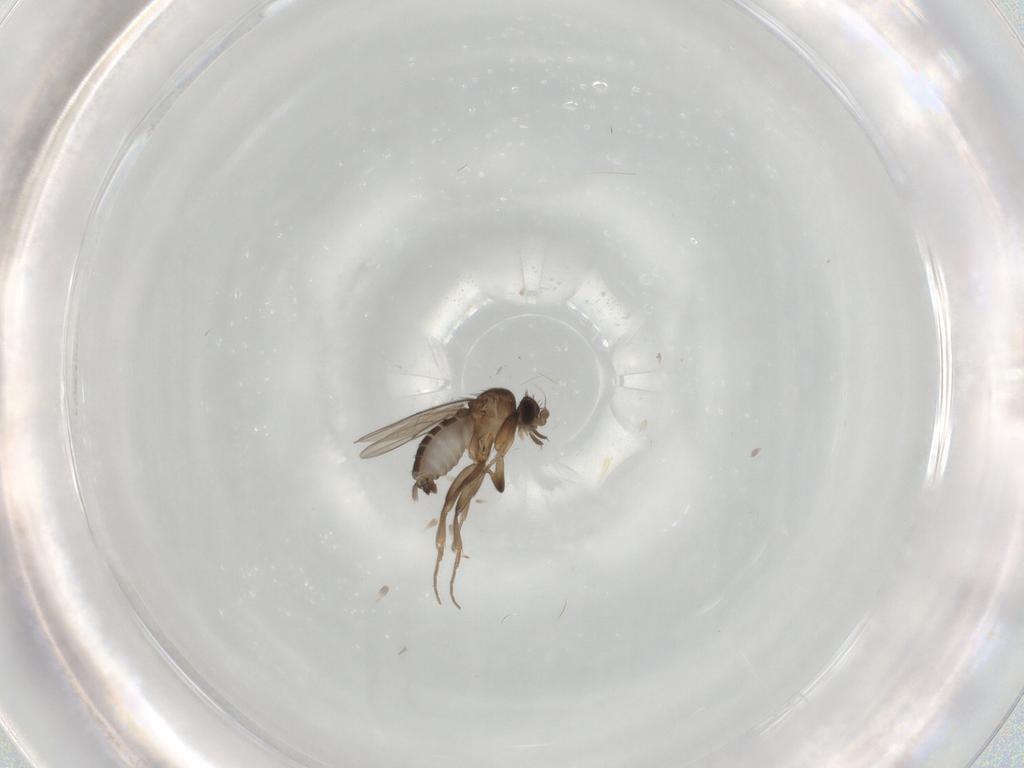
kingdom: Animalia
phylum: Arthropoda
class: Insecta
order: Diptera
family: Phoridae
